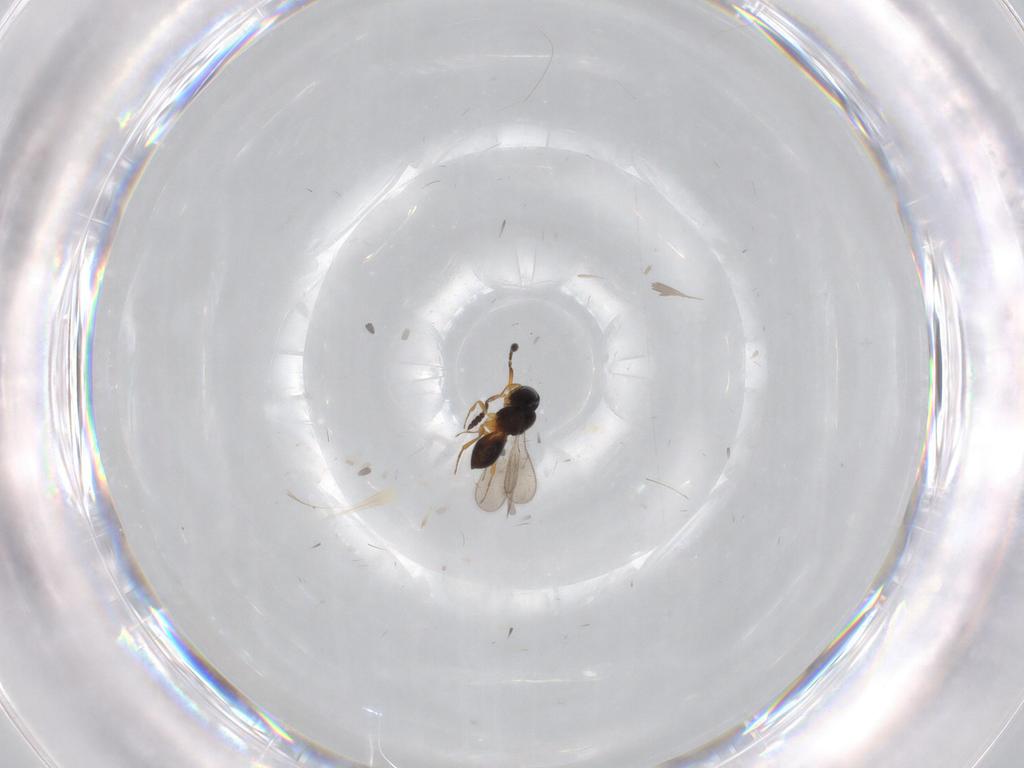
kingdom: Animalia
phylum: Arthropoda
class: Insecta
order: Hymenoptera
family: Scelionidae
